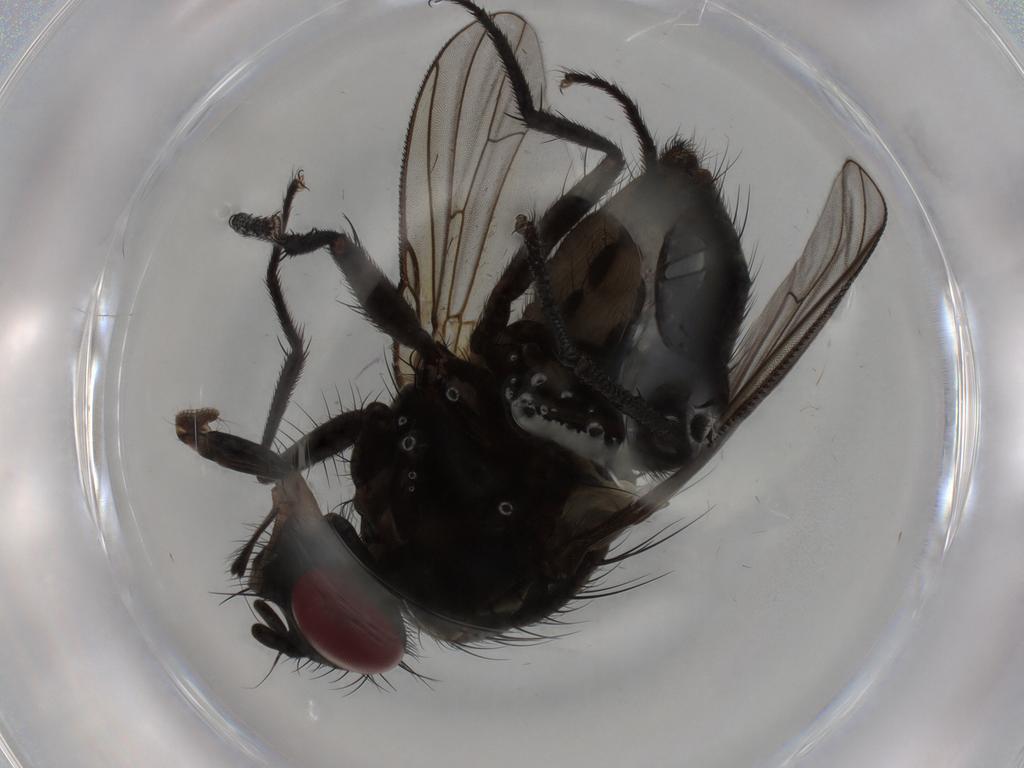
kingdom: Animalia
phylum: Arthropoda
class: Insecta
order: Diptera
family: Muscidae
